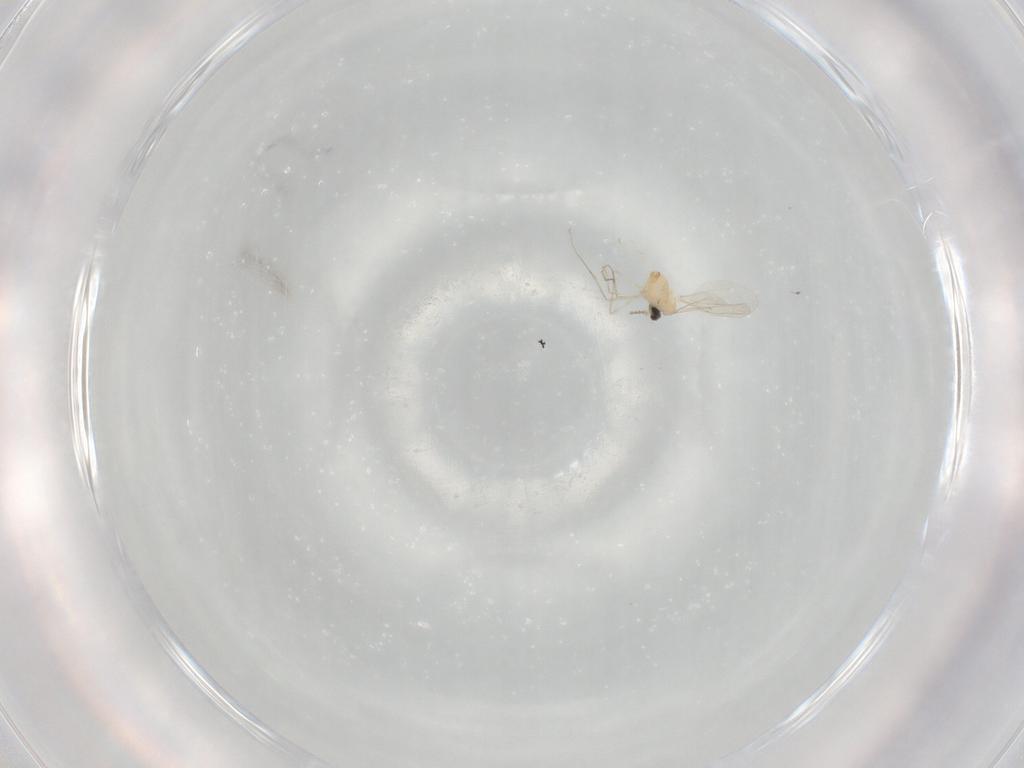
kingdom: Animalia
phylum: Arthropoda
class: Insecta
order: Diptera
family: Cecidomyiidae
